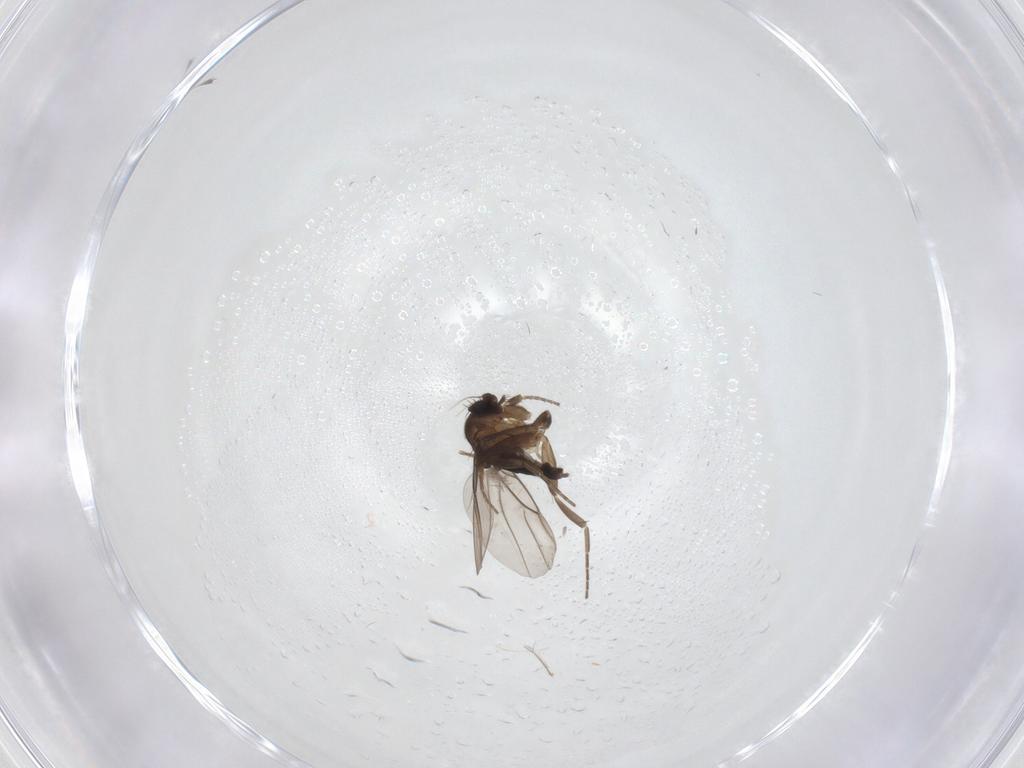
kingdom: Animalia
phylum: Arthropoda
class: Insecta
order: Diptera
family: Phoridae
